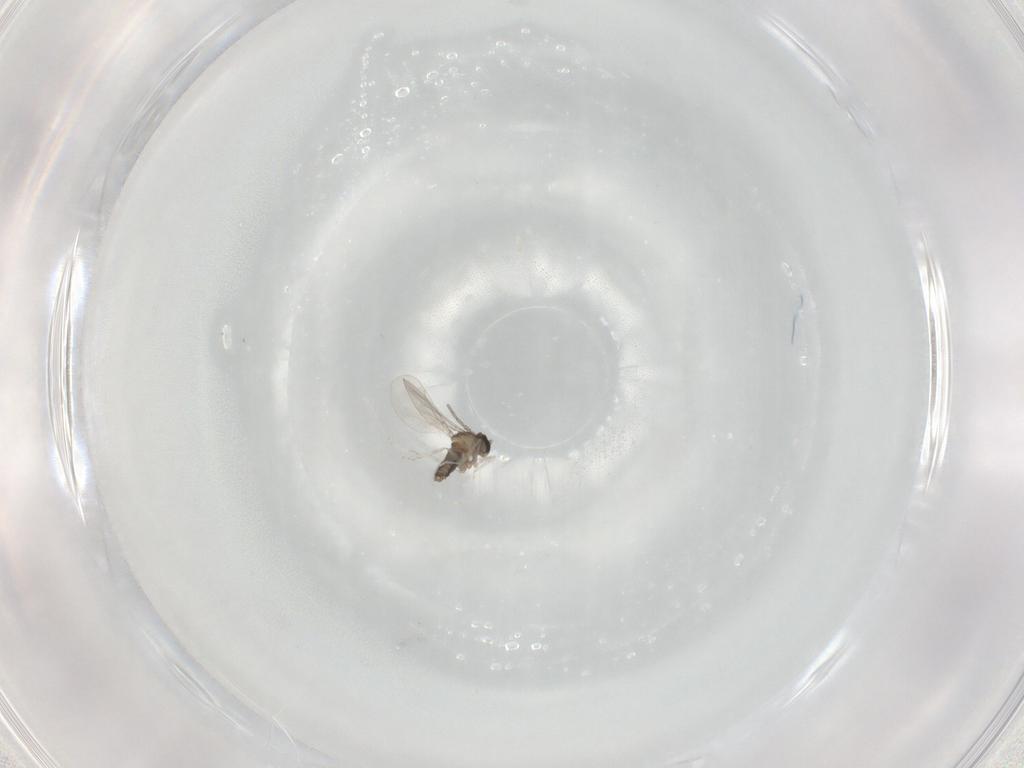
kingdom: Animalia
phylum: Arthropoda
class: Insecta
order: Diptera
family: Cecidomyiidae
